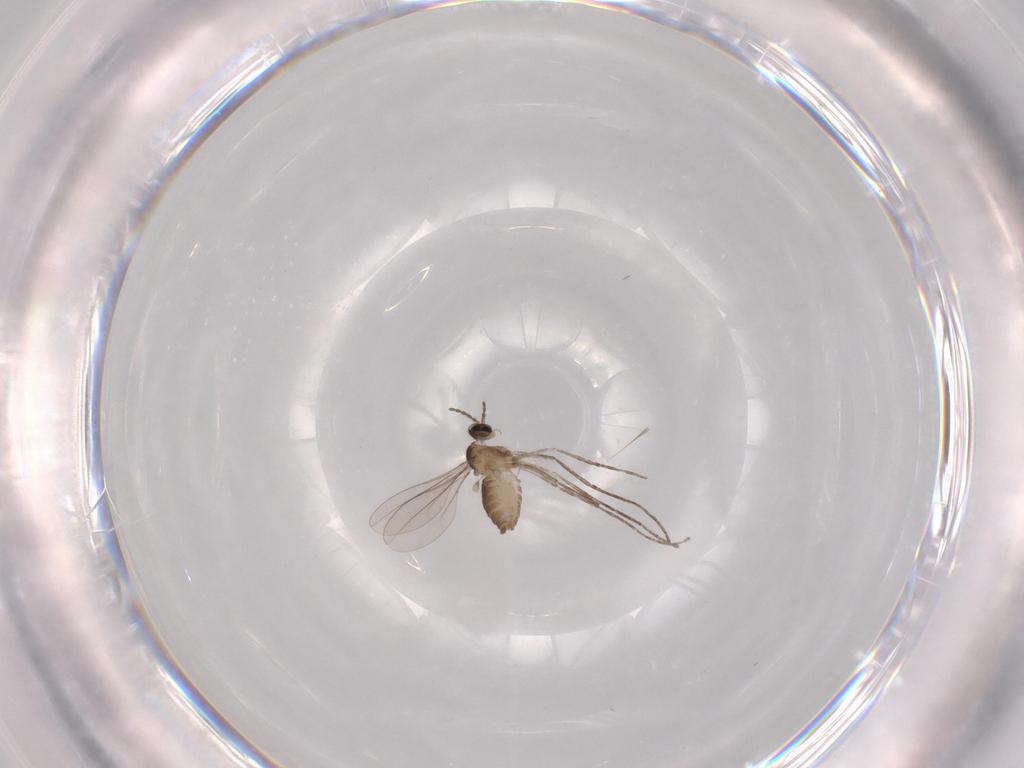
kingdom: Animalia
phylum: Arthropoda
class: Insecta
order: Diptera
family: Cecidomyiidae
